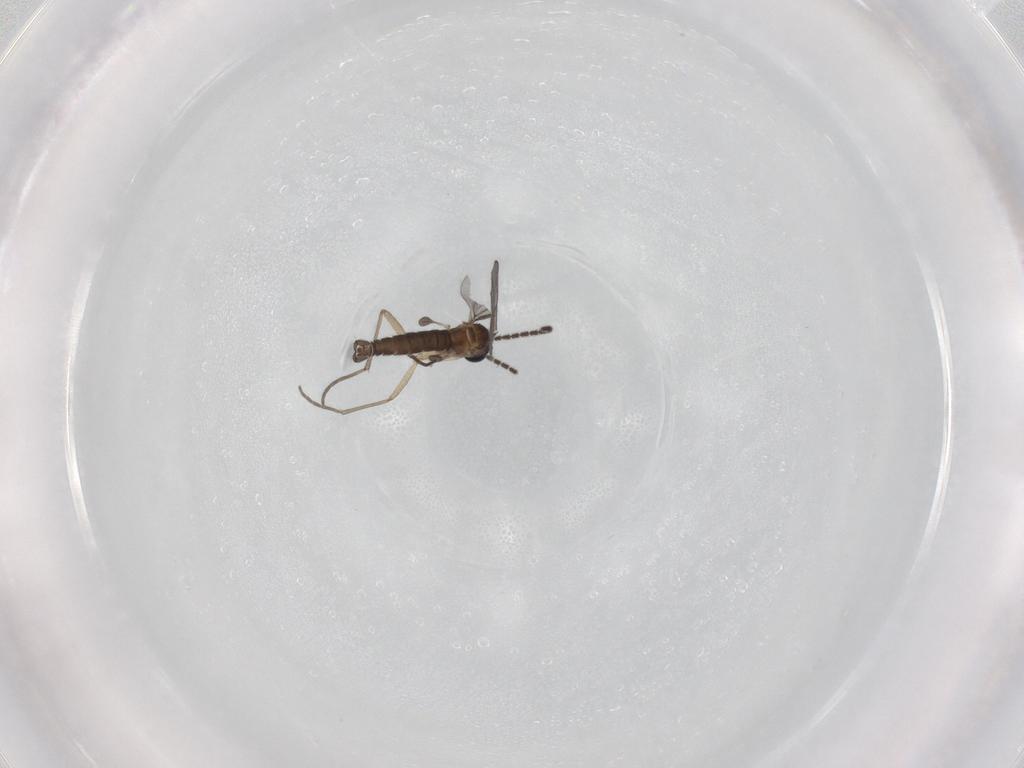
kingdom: Animalia
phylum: Arthropoda
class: Insecta
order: Diptera
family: Sciaridae
